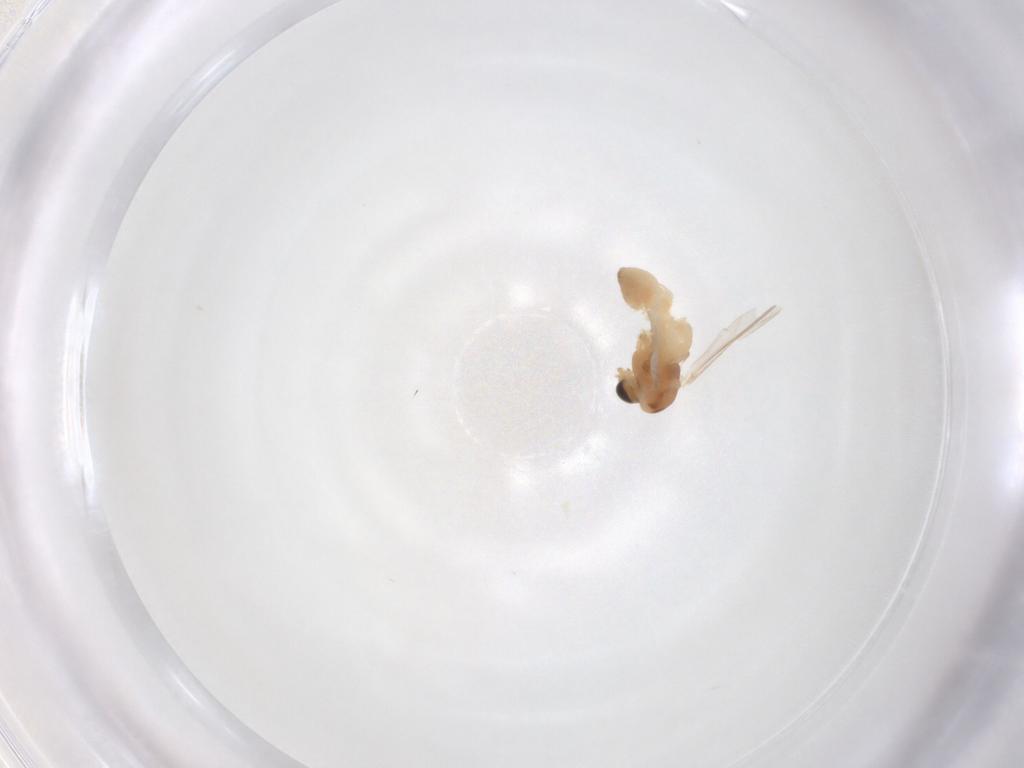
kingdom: Animalia
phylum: Arthropoda
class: Insecta
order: Diptera
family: Chironomidae
